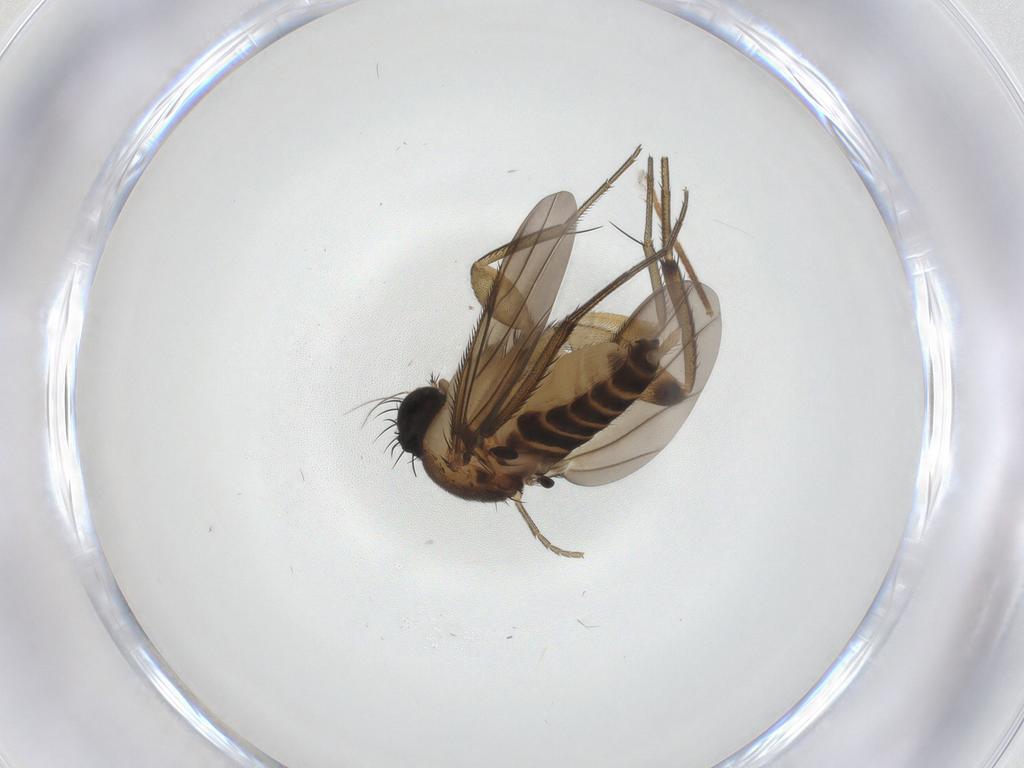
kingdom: Animalia
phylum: Arthropoda
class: Insecta
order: Diptera
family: Phoridae
